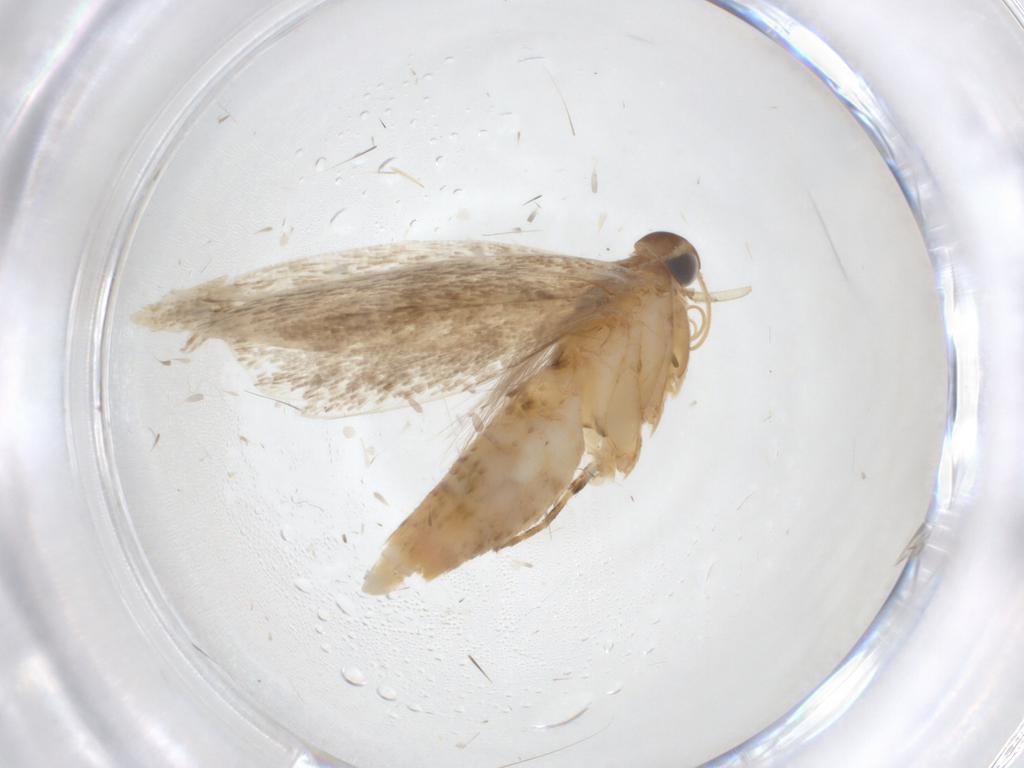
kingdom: Animalia
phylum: Arthropoda
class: Insecta
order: Lepidoptera
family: Gelechiidae
